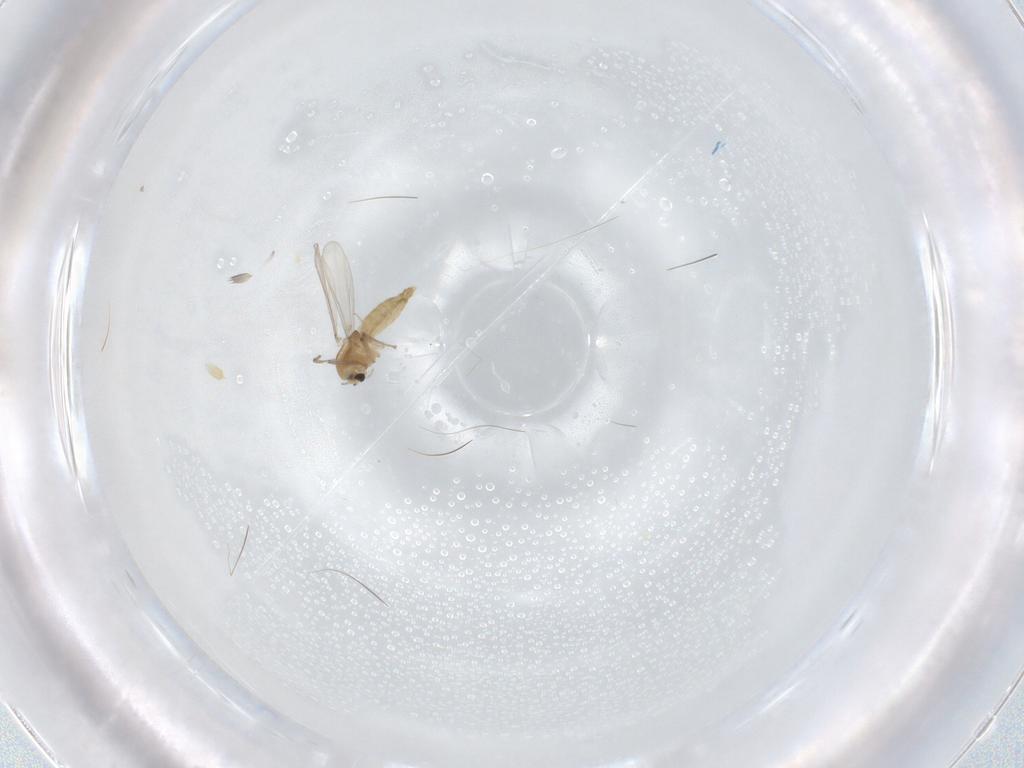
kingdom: Animalia
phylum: Arthropoda
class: Insecta
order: Diptera
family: Chironomidae
